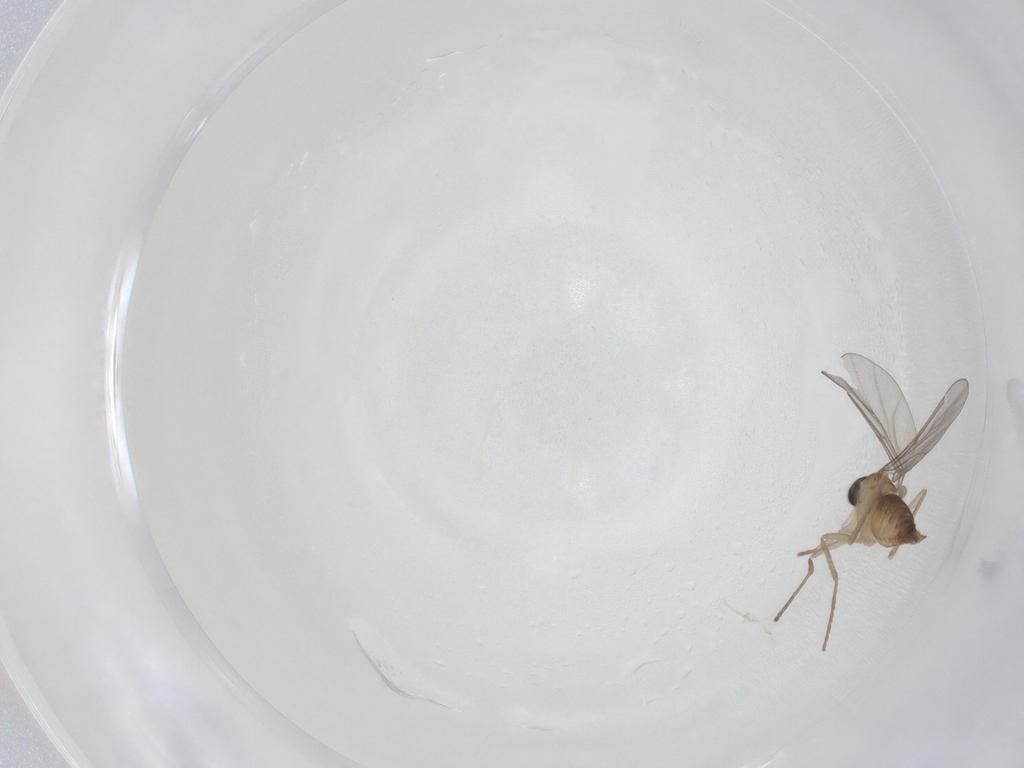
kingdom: Animalia
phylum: Arthropoda
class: Insecta
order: Diptera
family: Cecidomyiidae
